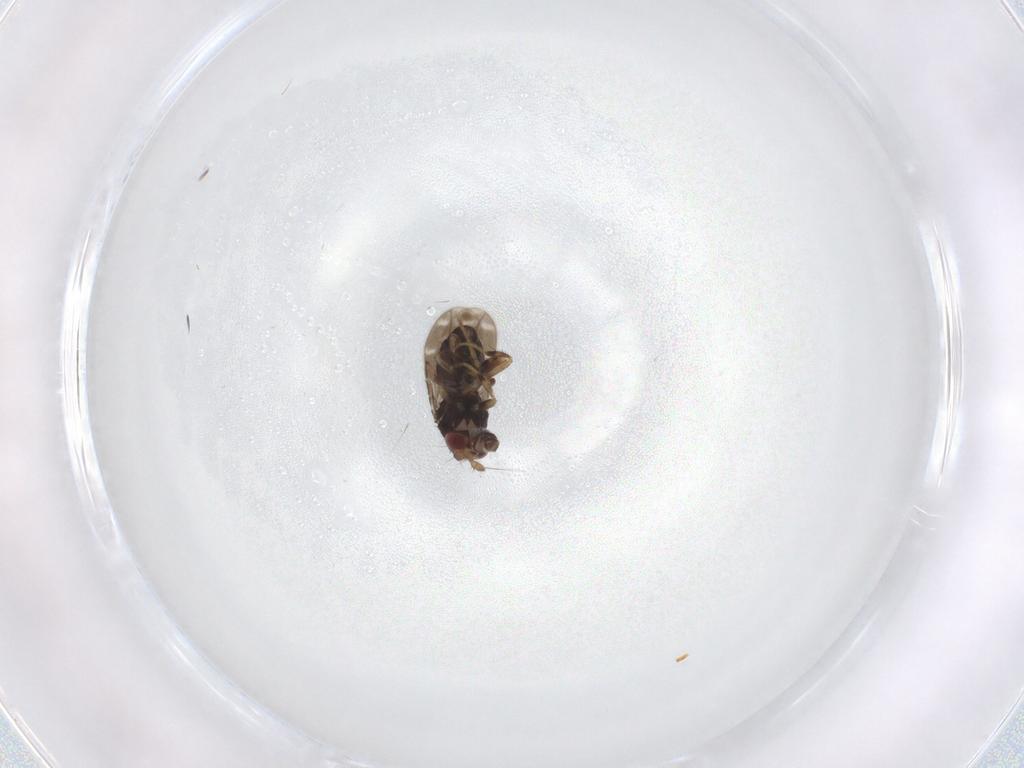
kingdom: Animalia
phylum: Arthropoda
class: Insecta
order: Diptera
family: Sphaeroceridae
